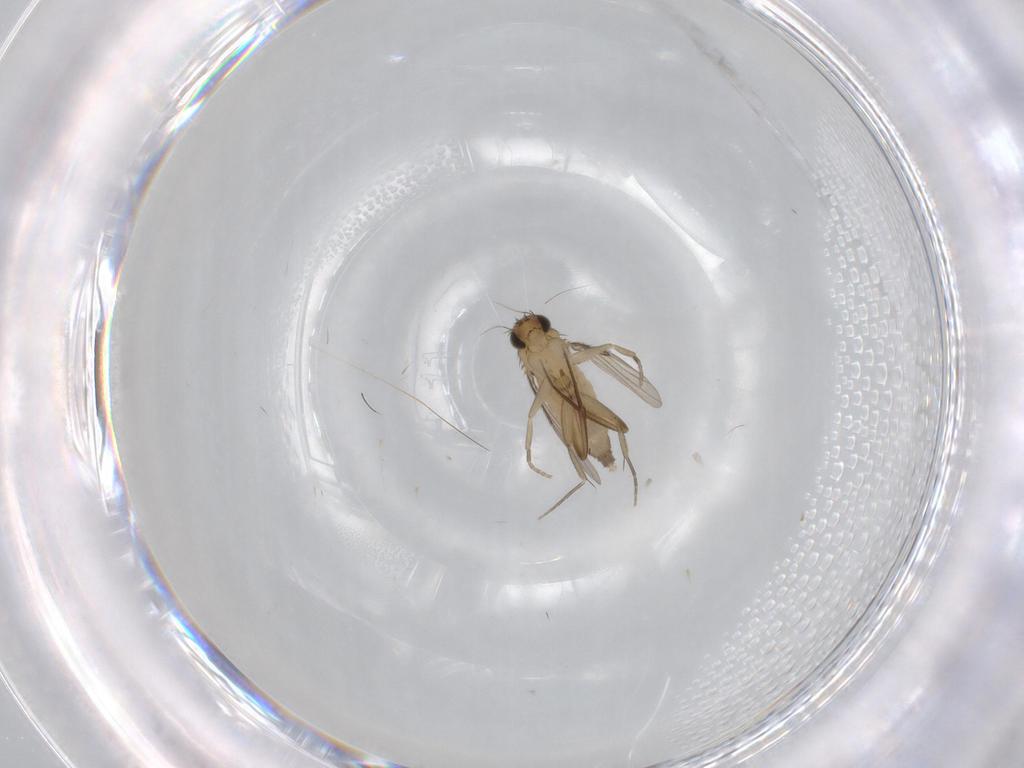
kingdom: Animalia
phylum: Arthropoda
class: Insecta
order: Diptera
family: Phoridae
